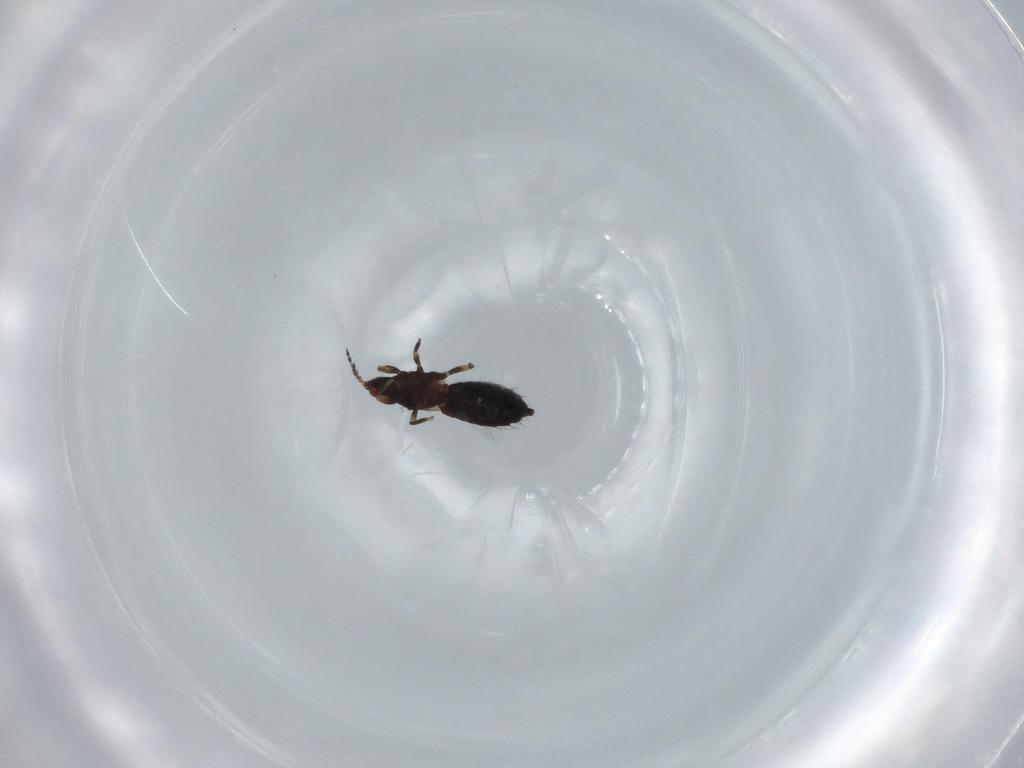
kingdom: Animalia
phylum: Arthropoda
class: Insecta
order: Thysanoptera
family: Phlaeothripidae
